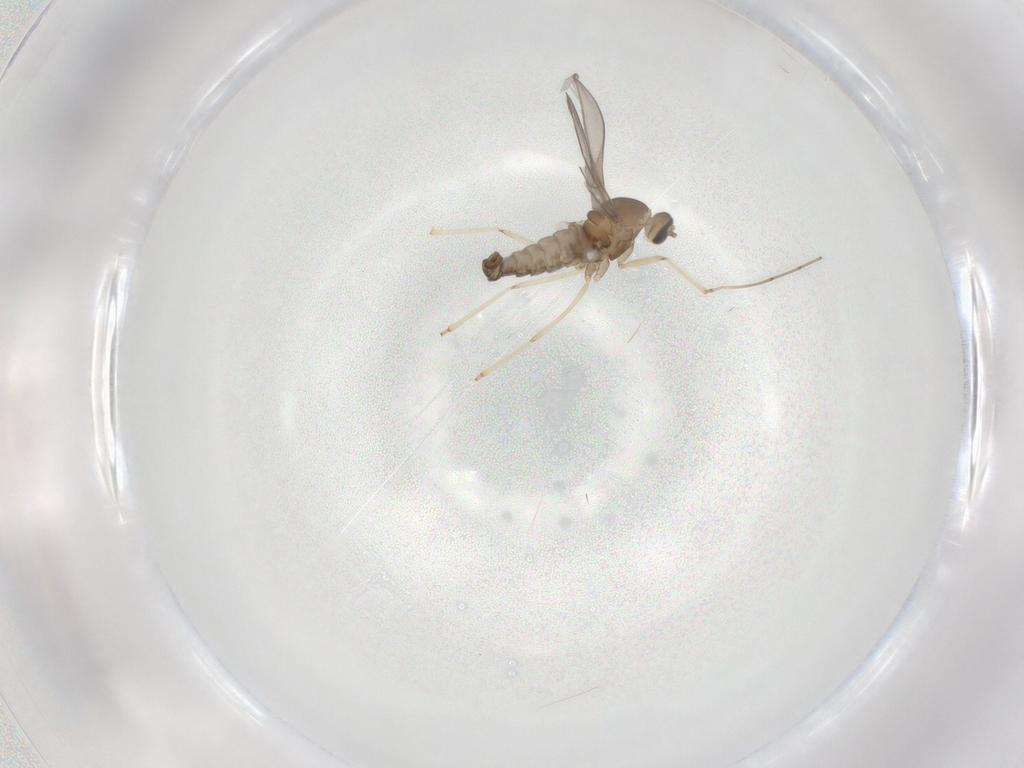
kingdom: Animalia
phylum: Arthropoda
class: Insecta
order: Diptera
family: Cecidomyiidae
